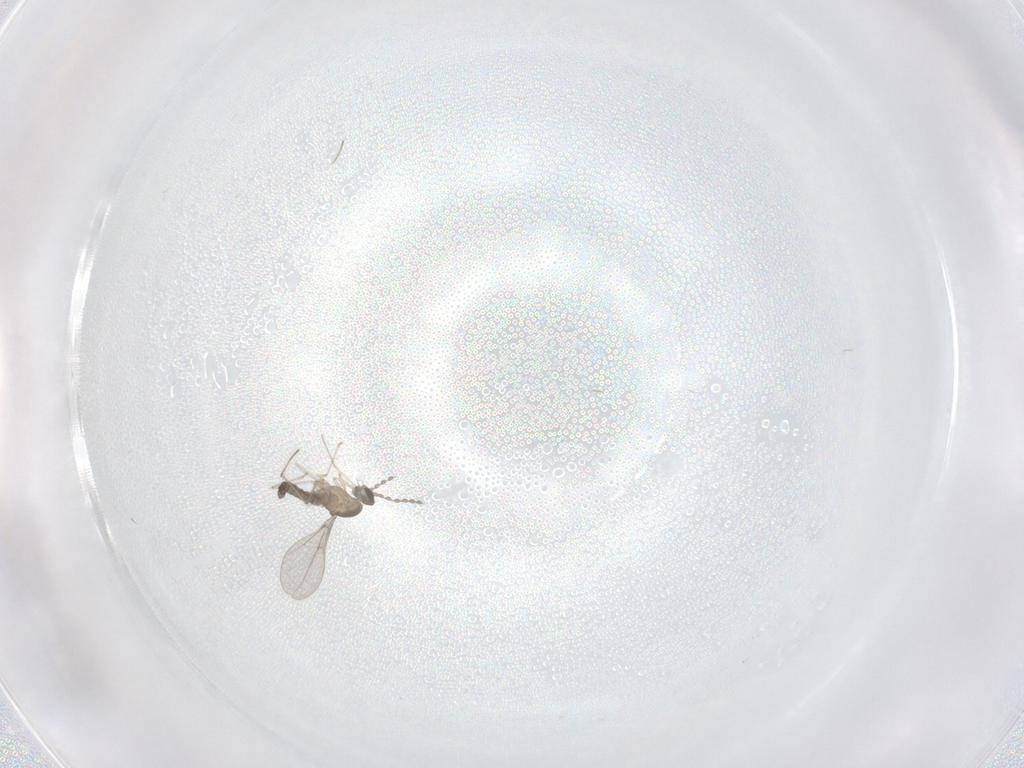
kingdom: Animalia
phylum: Arthropoda
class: Insecta
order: Diptera
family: Cecidomyiidae
